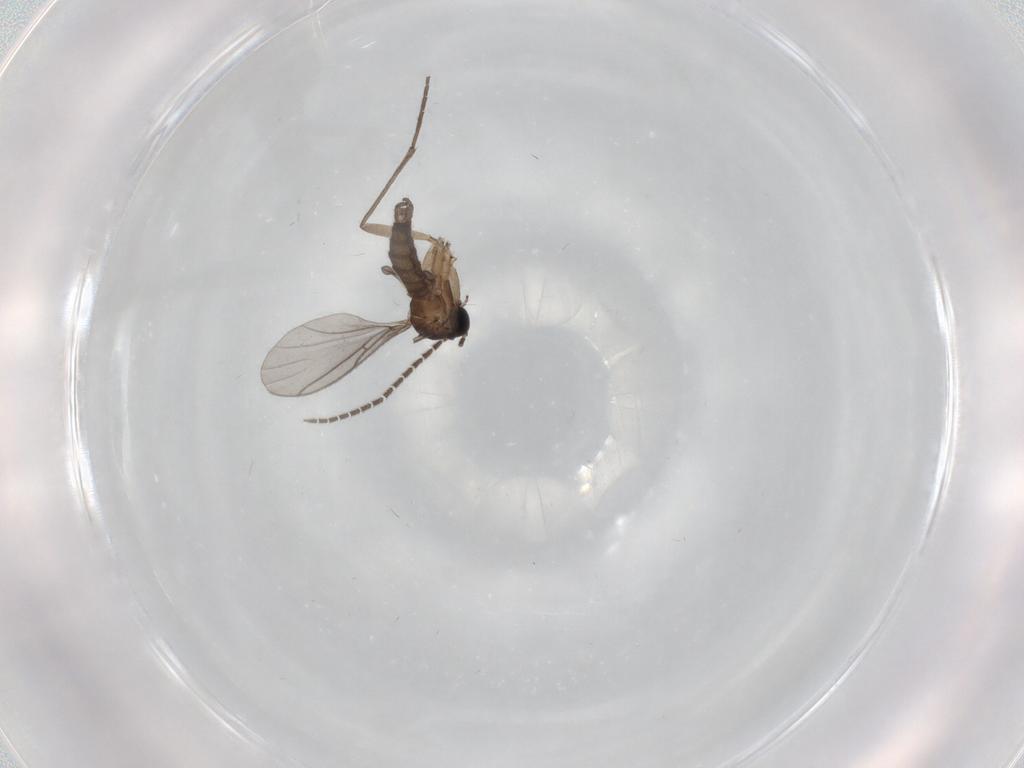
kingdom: Animalia
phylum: Arthropoda
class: Insecta
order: Diptera
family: Sciaridae
